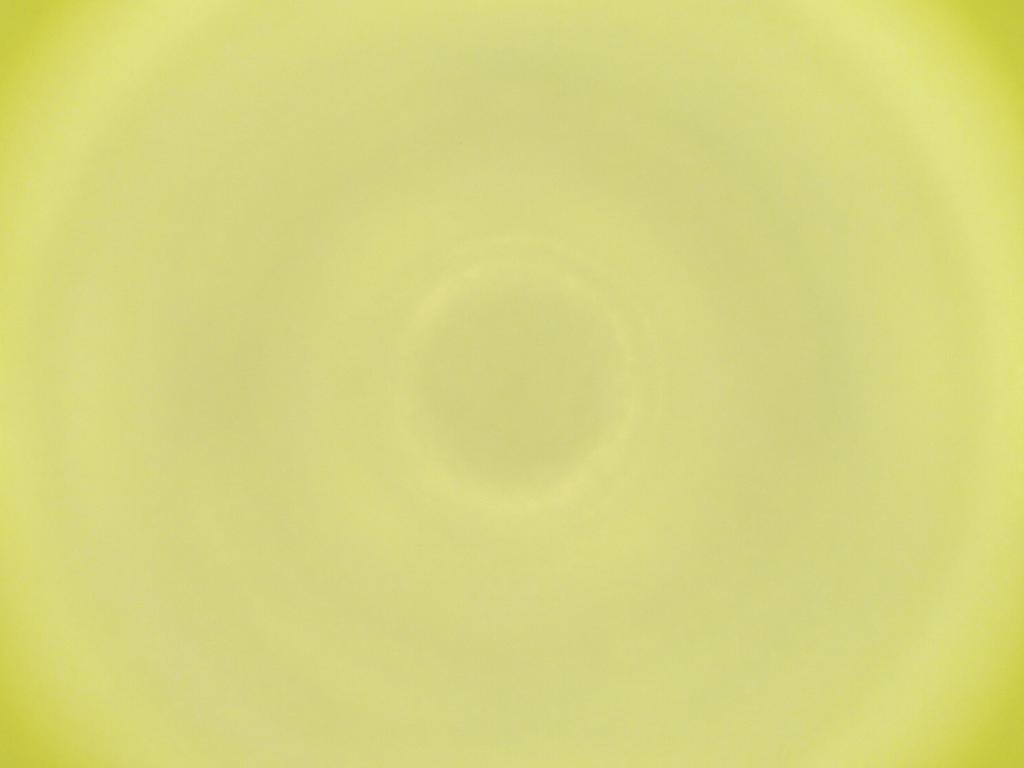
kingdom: Animalia
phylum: Arthropoda
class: Insecta
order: Diptera
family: Cecidomyiidae
